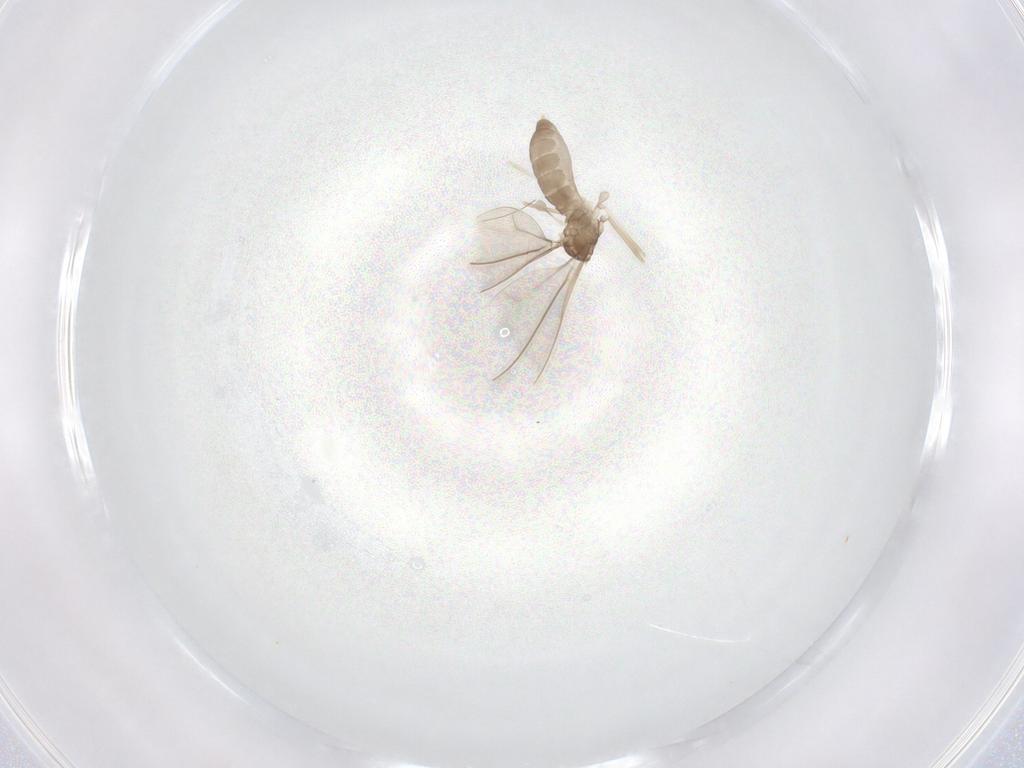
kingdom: Animalia
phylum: Arthropoda
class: Insecta
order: Diptera
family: Cecidomyiidae
